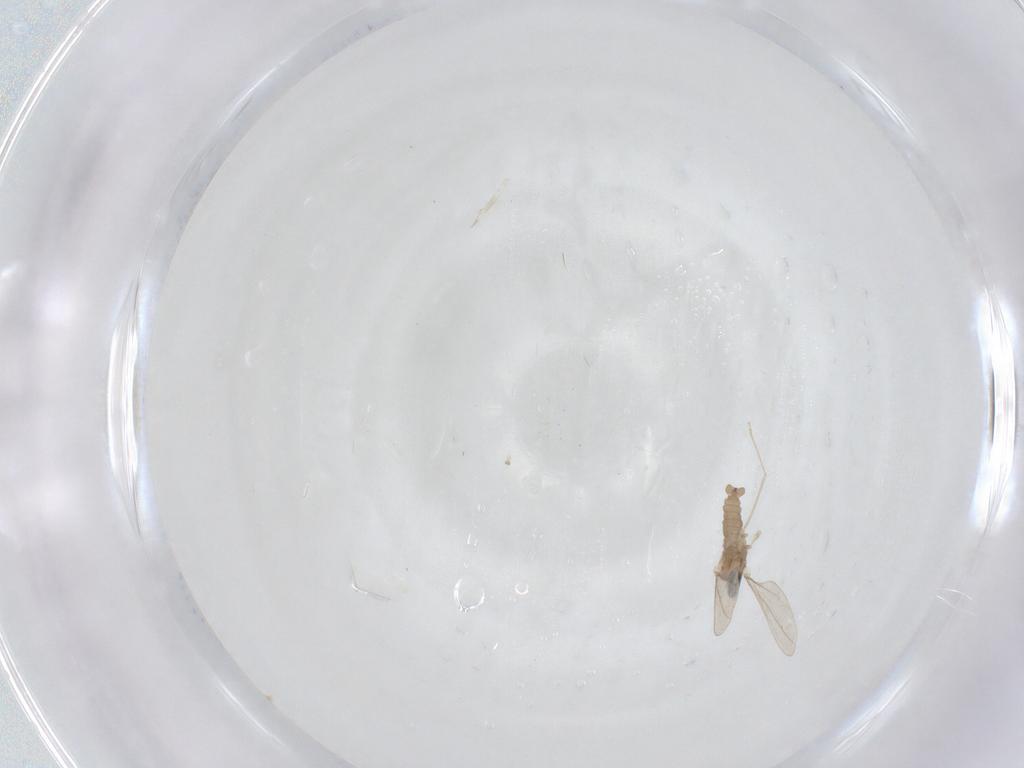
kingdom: Animalia
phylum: Arthropoda
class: Insecta
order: Diptera
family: Cecidomyiidae
